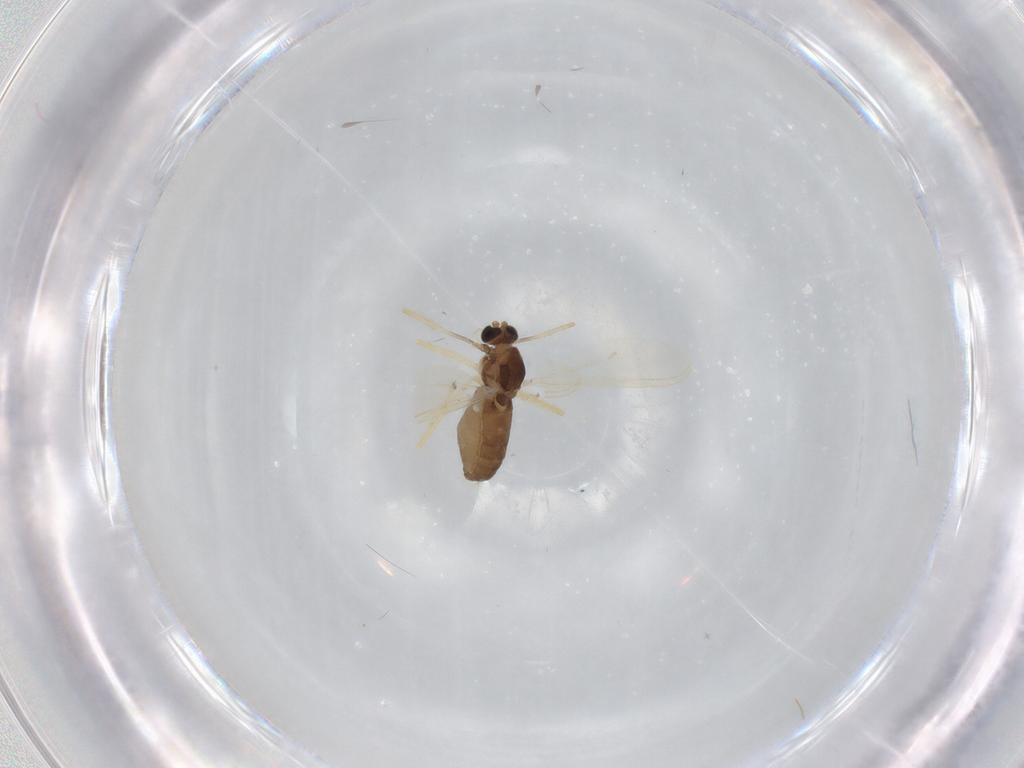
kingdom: Animalia
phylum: Arthropoda
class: Insecta
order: Diptera
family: Chironomidae
